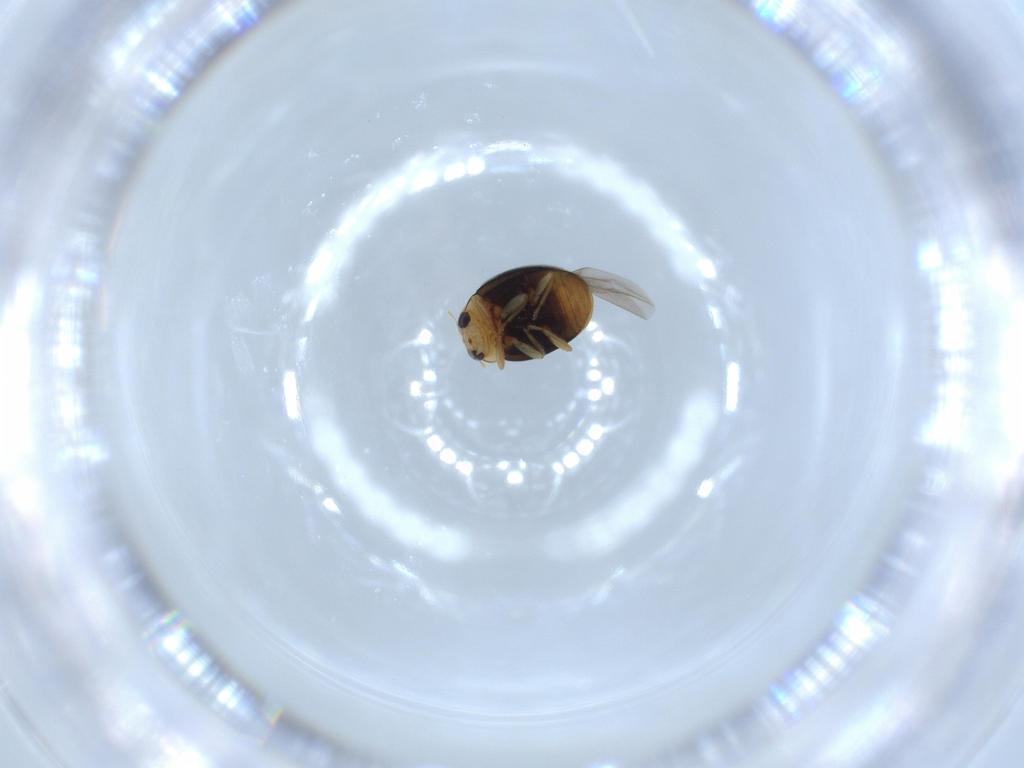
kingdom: Animalia
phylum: Arthropoda
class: Insecta
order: Coleoptera
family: Coccinellidae
